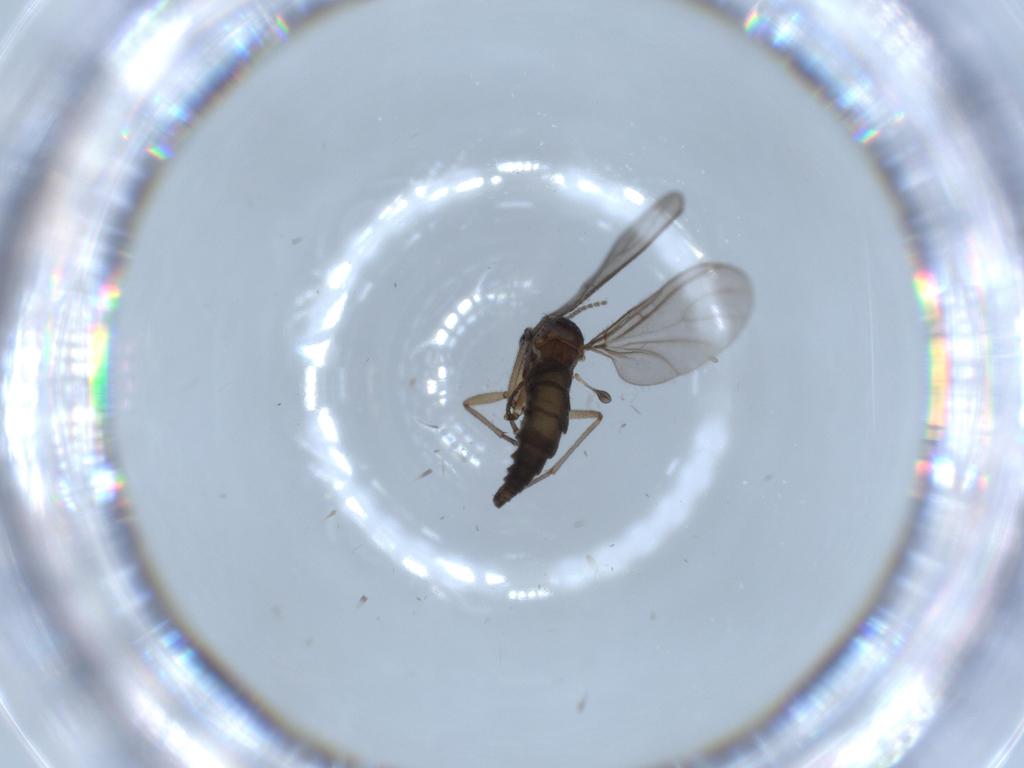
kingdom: Animalia
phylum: Arthropoda
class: Insecta
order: Diptera
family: Sciaridae
